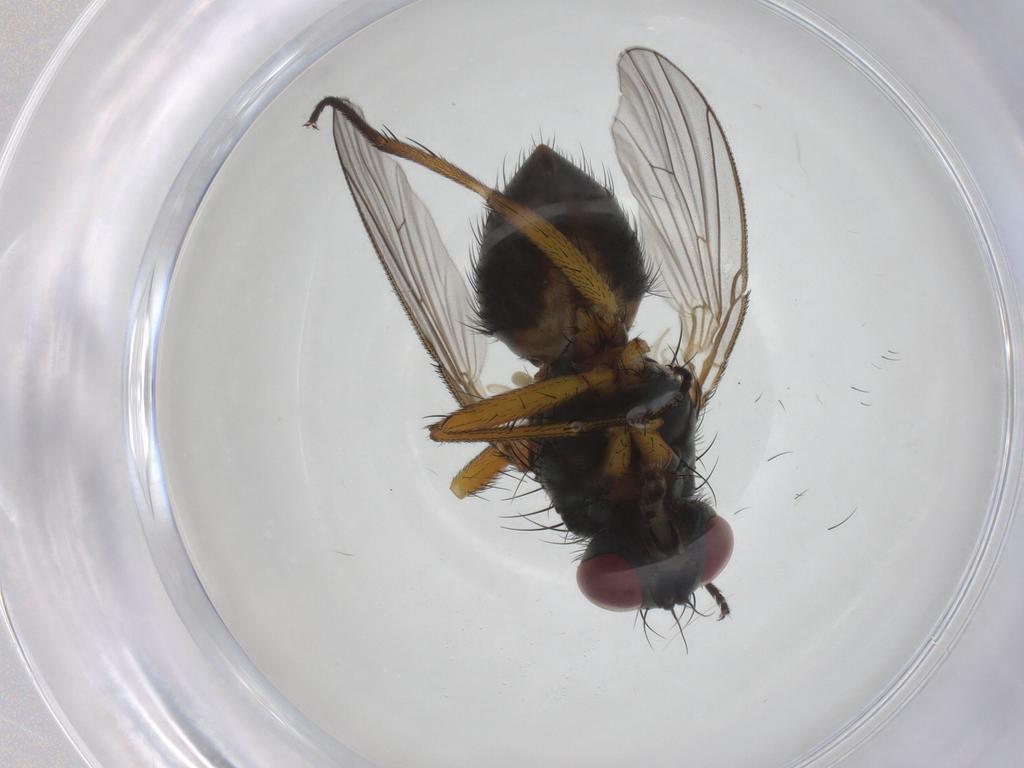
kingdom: Animalia
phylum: Arthropoda
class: Insecta
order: Diptera
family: Muscidae
